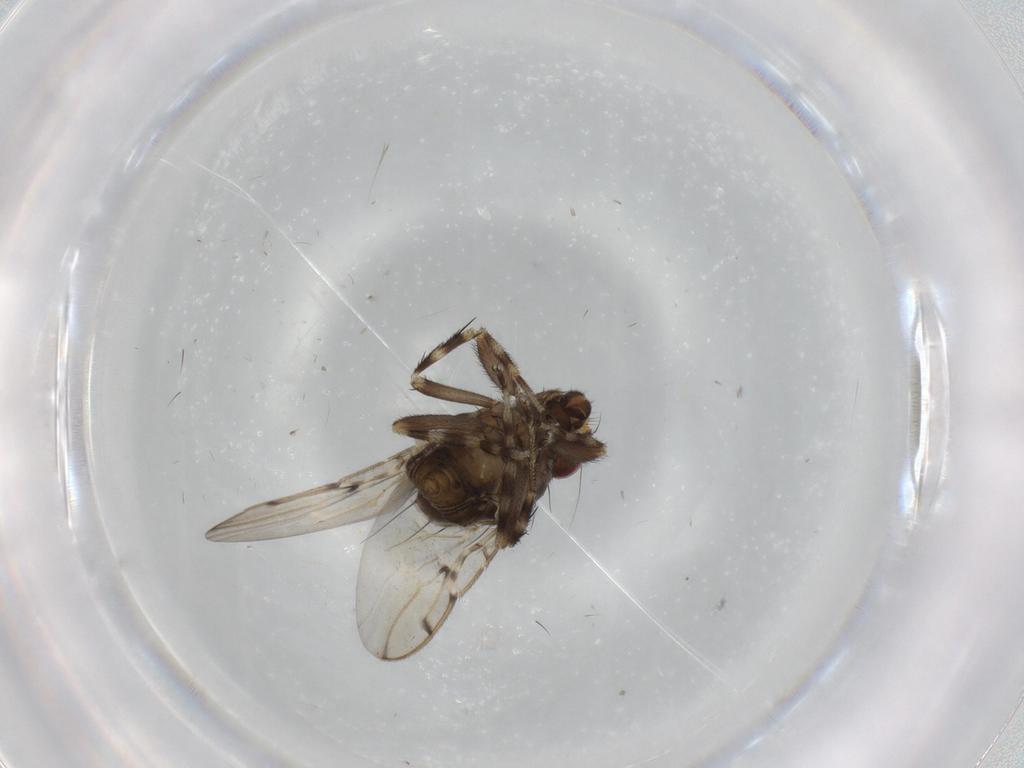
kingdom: Animalia
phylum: Arthropoda
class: Insecta
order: Diptera
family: Sphaeroceridae
